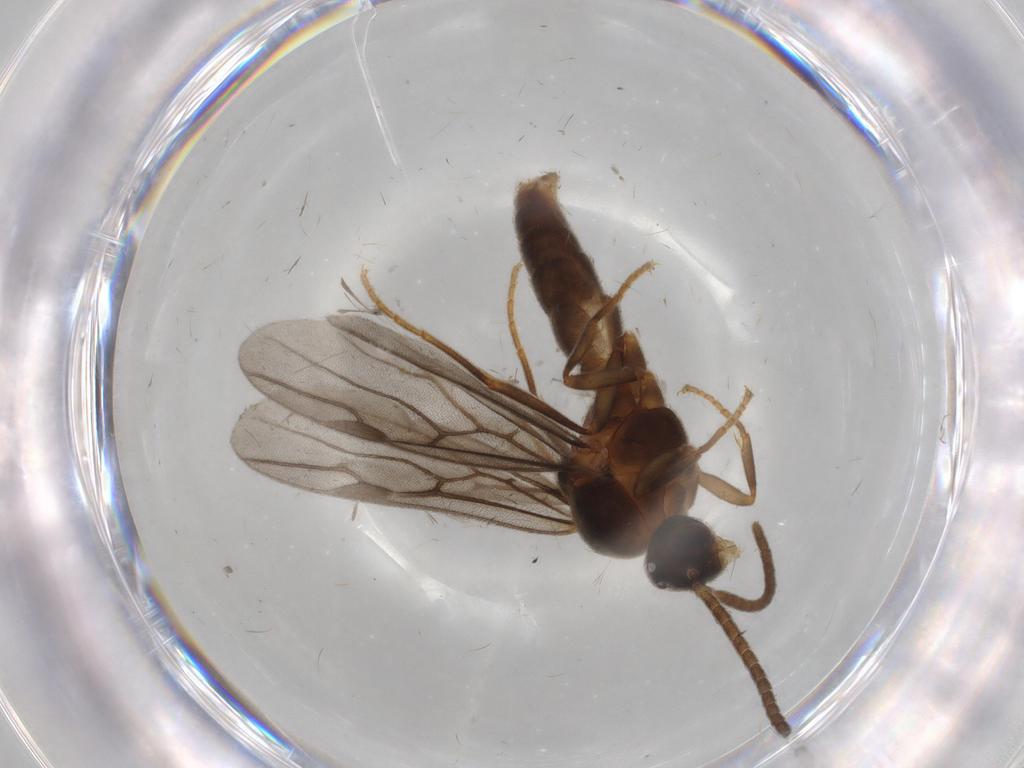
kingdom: Animalia
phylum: Arthropoda
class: Insecta
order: Hymenoptera
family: Formicidae
